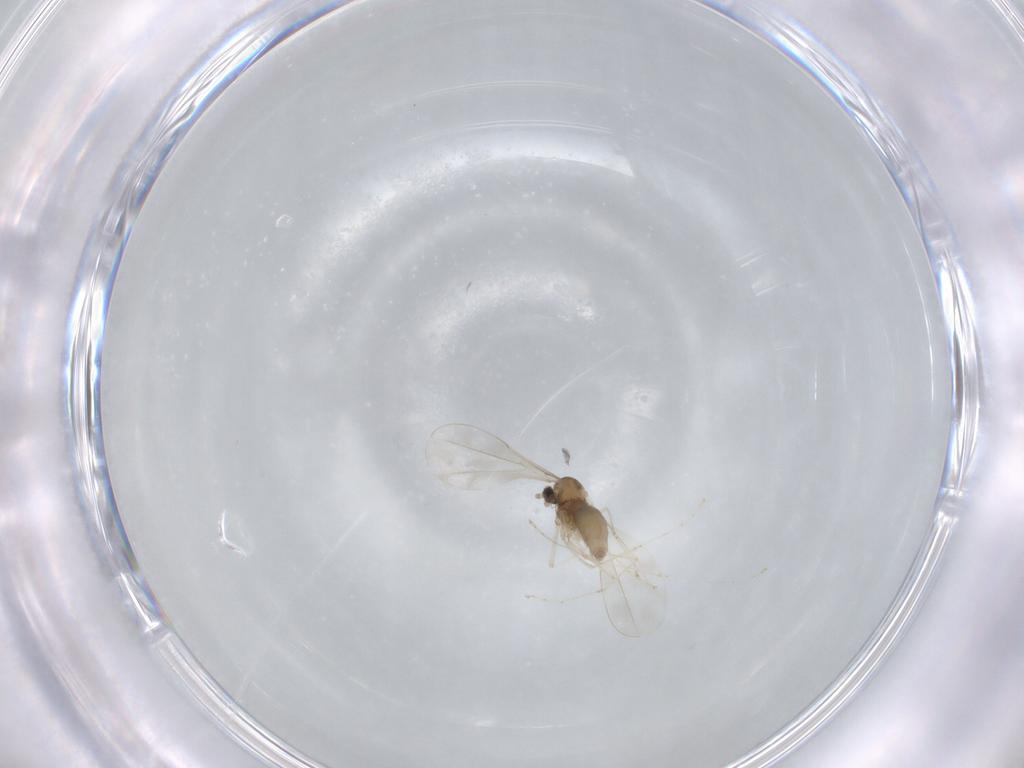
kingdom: Animalia
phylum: Arthropoda
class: Insecta
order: Diptera
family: Cecidomyiidae
